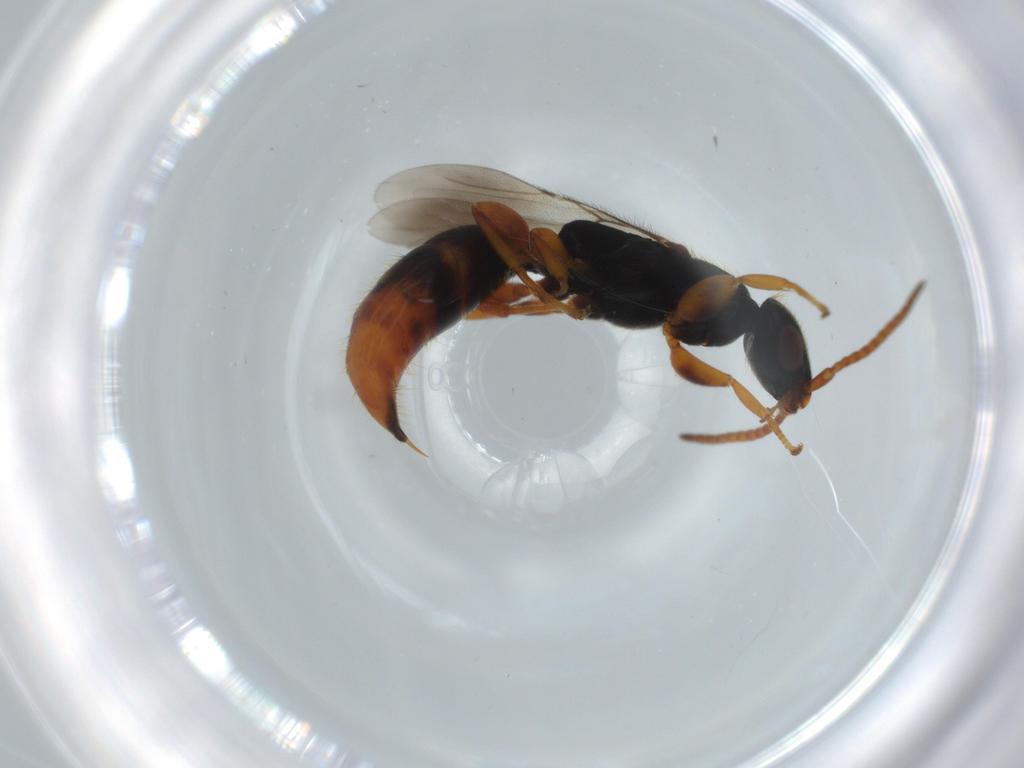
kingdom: Animalia
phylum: Arthropoda
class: Insecta
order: Hymenoptera
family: Bethylidae
